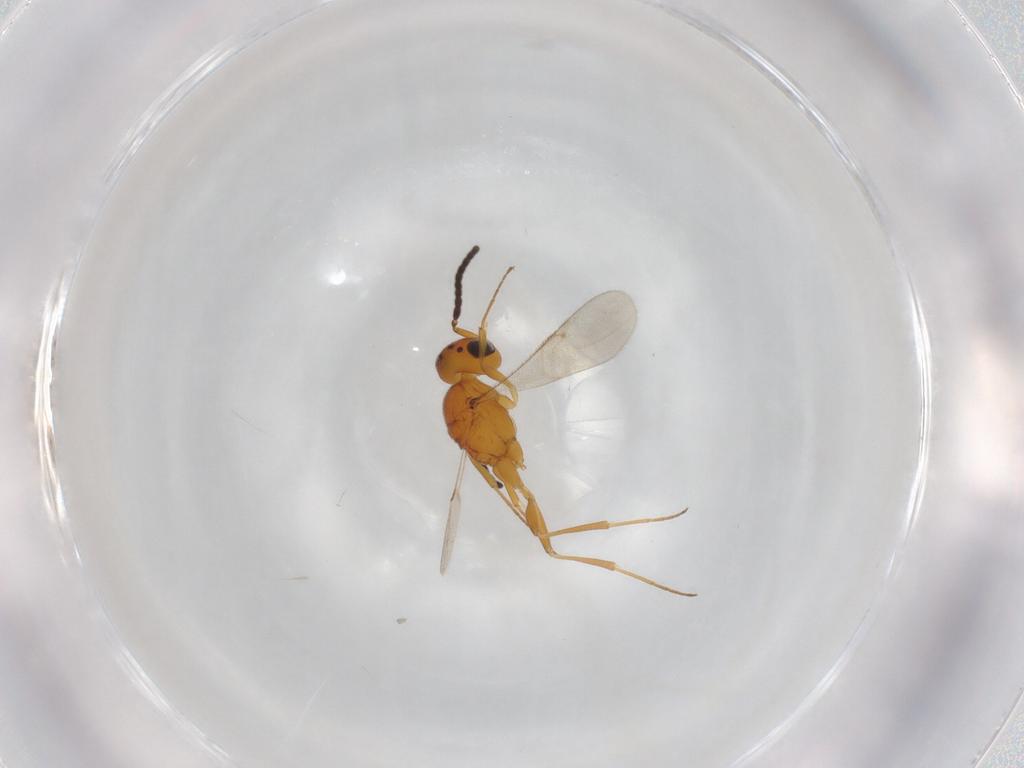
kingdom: Animalia
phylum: Arthropoda
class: Insecta
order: Hymenoptera
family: Scelionidae
